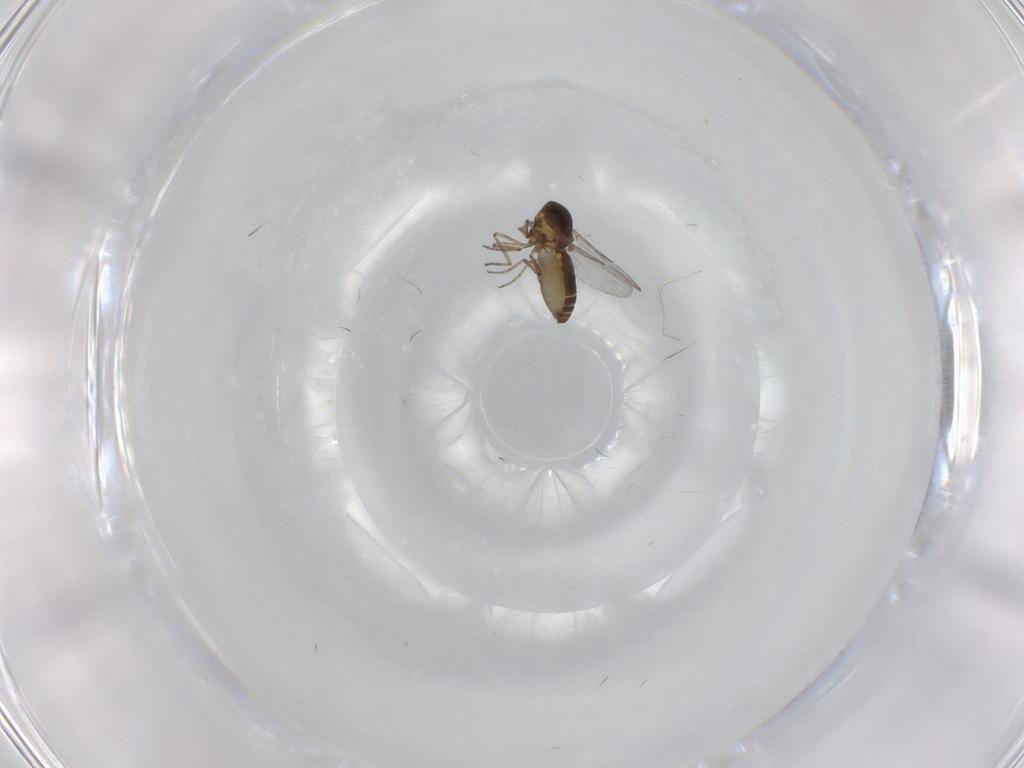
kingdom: Animalia
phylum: Arthropoda
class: Insecta
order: Diptera
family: Ceratopogonidae
